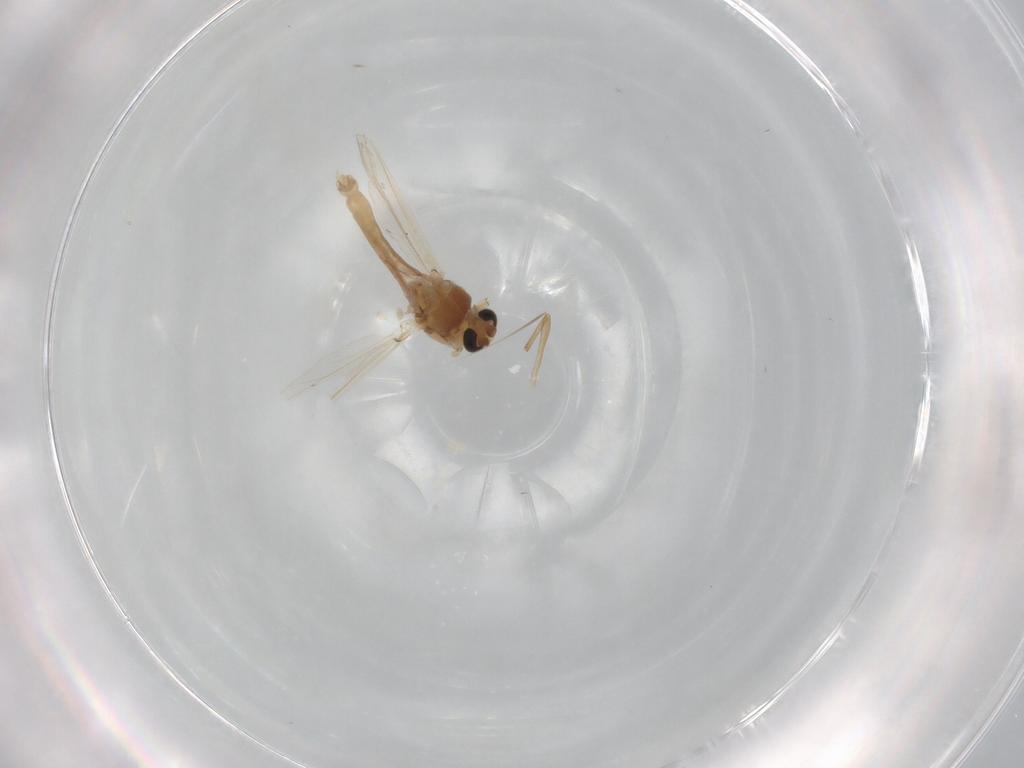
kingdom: Animalia
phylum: Arthropoda
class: Insecta
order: Diptera
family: Chironomidae
